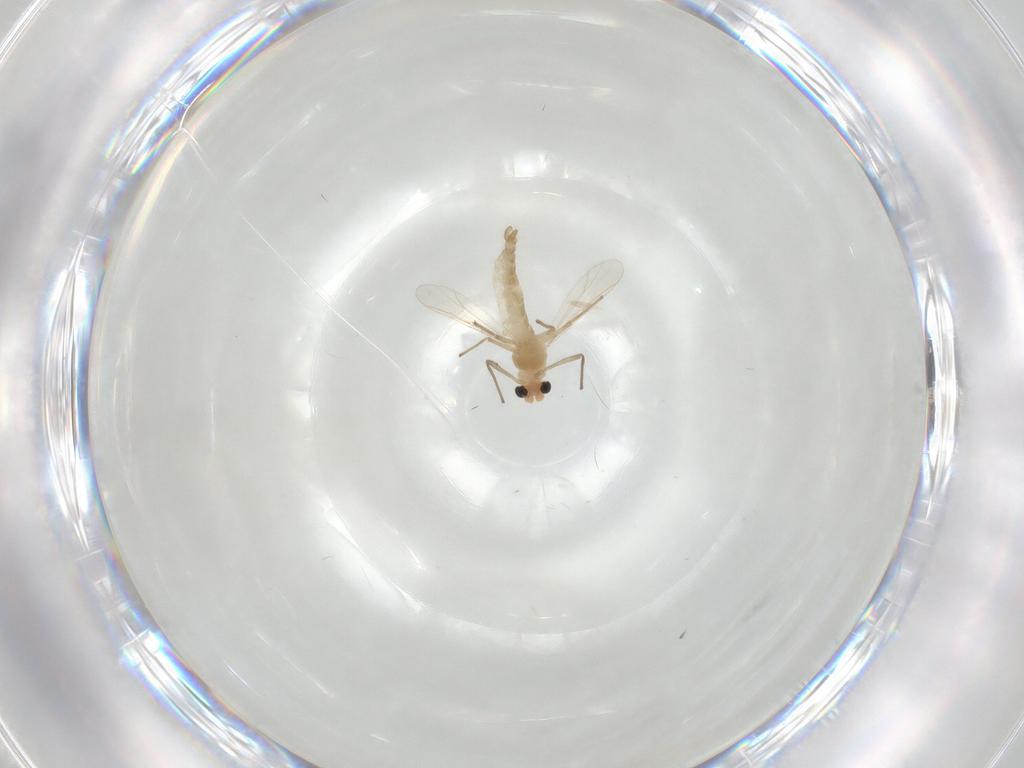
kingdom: Animalia
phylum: Arthropoda
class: Insecta
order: Diptera
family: Chironomidae
